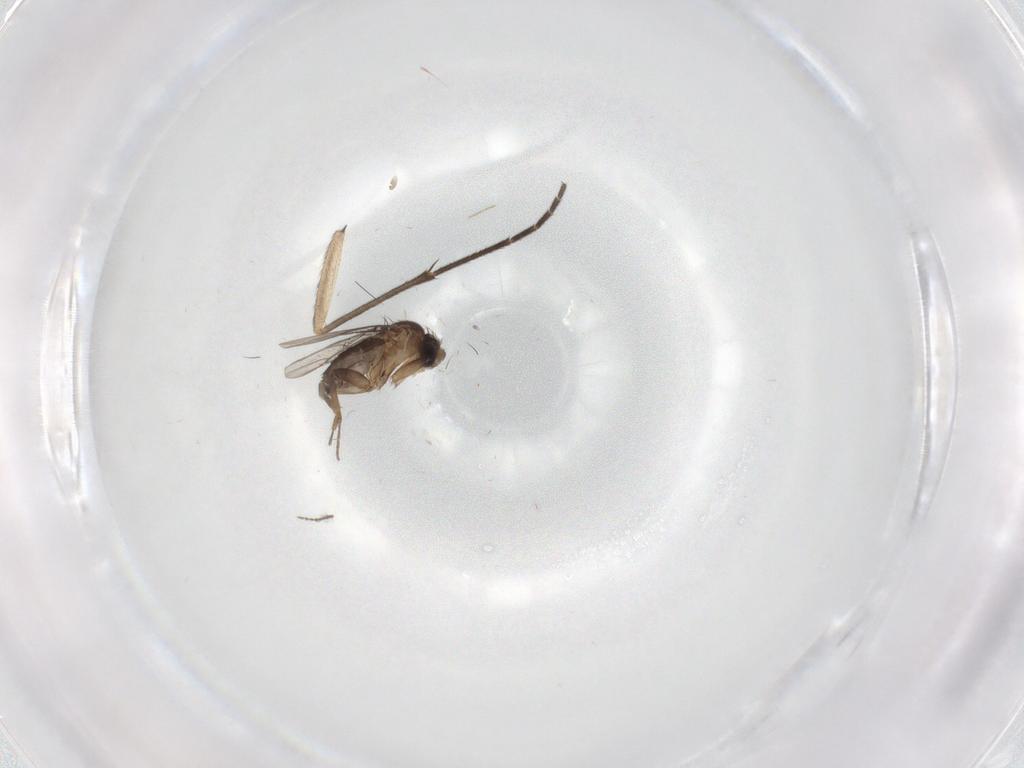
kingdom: Animalia
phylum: Arthropoda
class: Insecta
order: Diptera
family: Sciaridae
